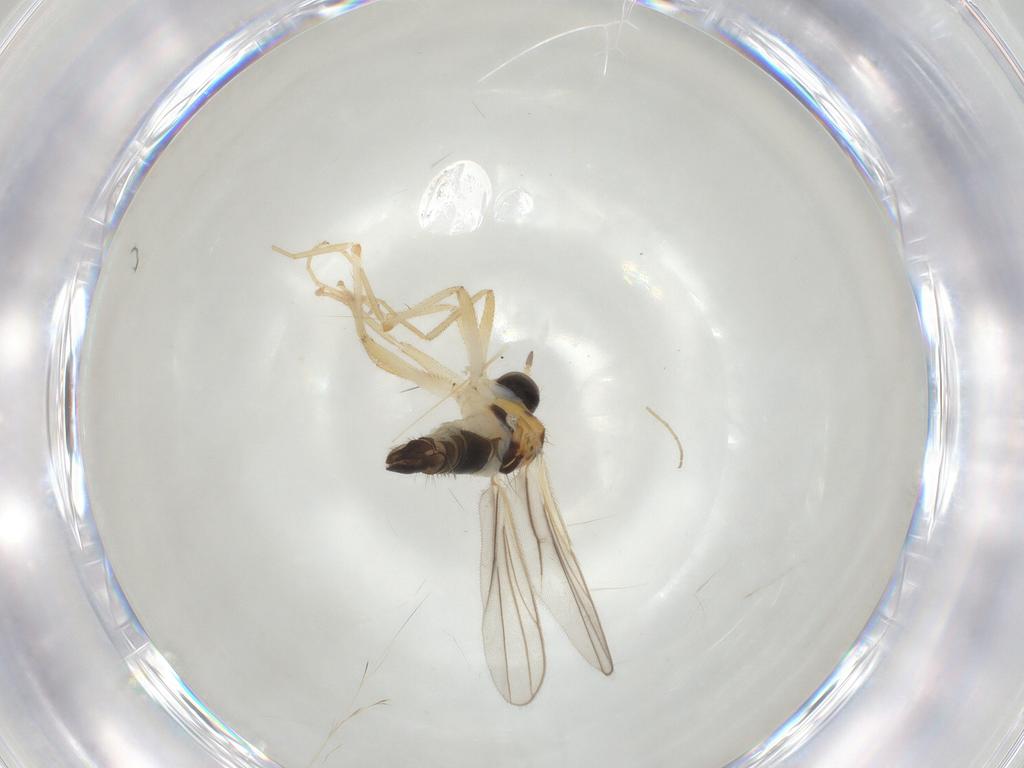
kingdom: Animalia
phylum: Arthropoda
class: Insecta
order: Diptera
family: Hybotidae
